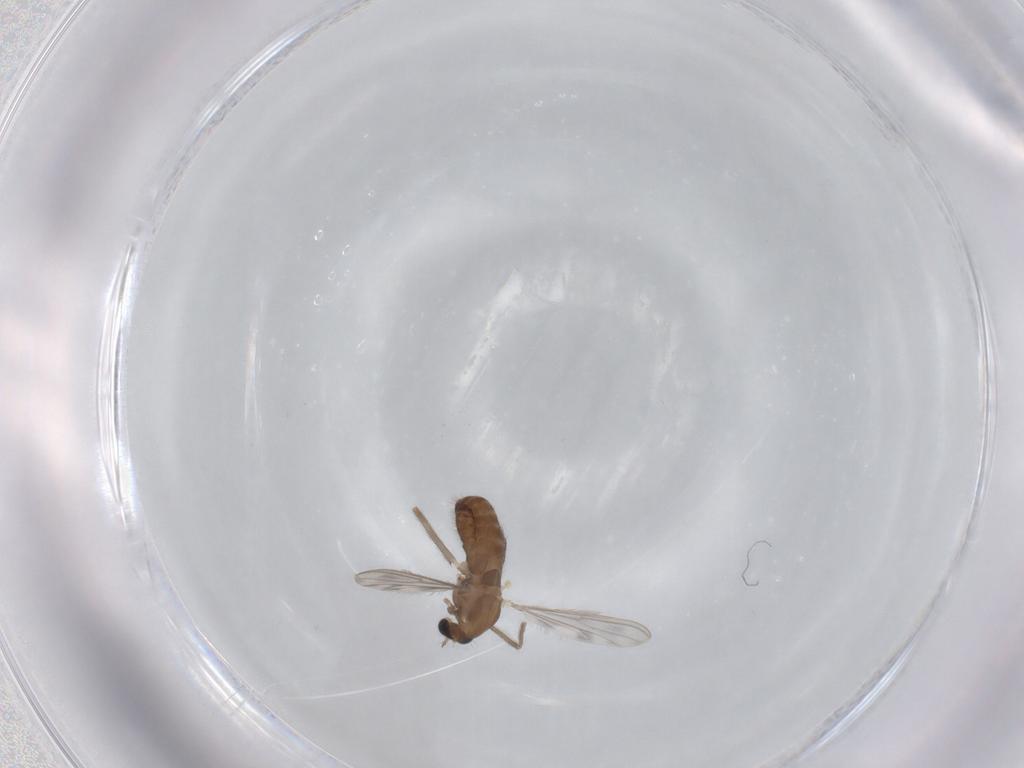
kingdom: Animalia
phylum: Arthropoda
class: Insecta
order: Diptera
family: Chironomidae
